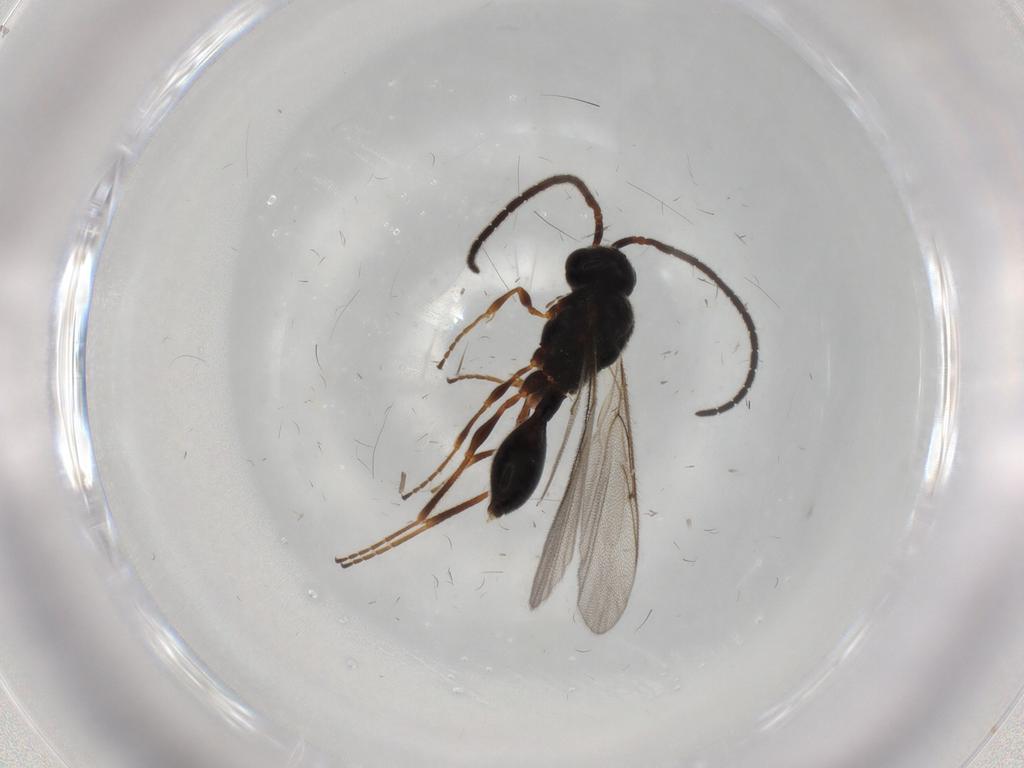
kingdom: Animalia
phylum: Arthropoda
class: Insecta
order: Hymenoptera
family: Diapriidae
